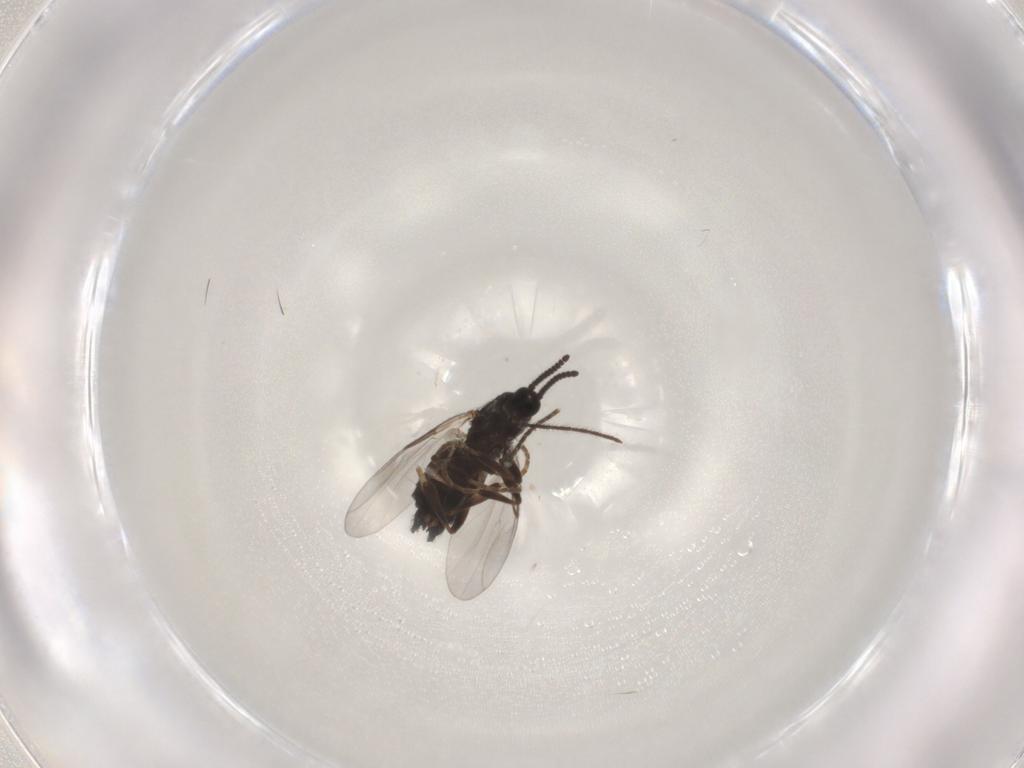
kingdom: Animalia
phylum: Arthropoda
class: Insecta
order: Diptera
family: Scatopsidae
